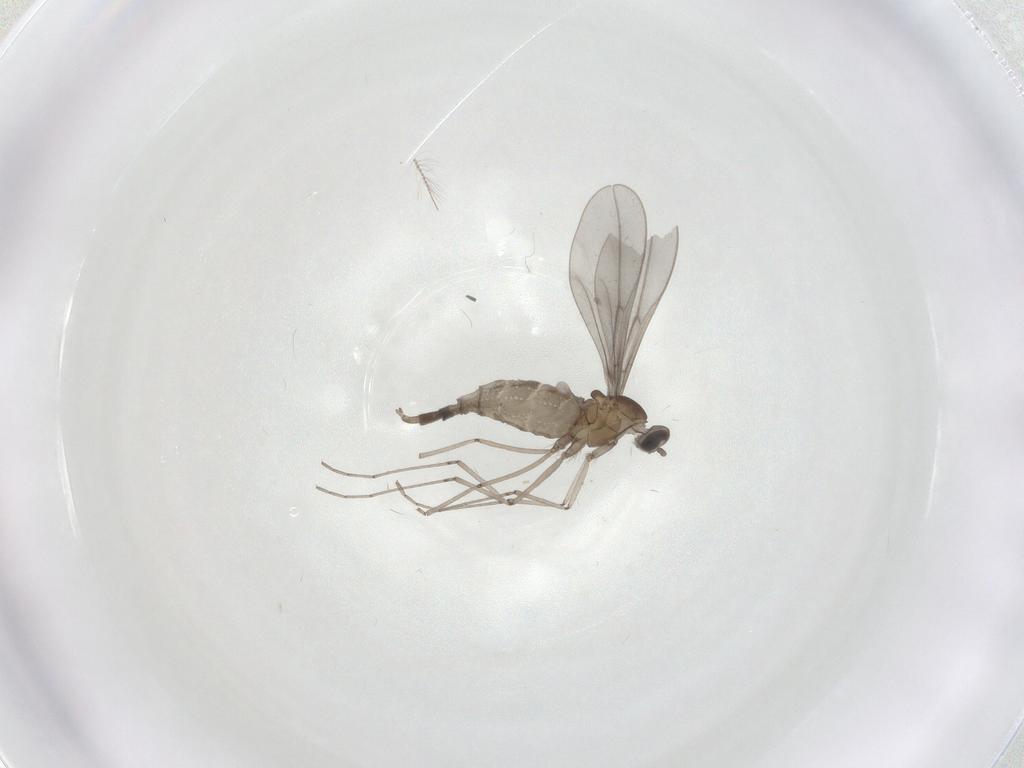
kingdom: Animalia
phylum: Arthropoda
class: Insecta
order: Diptera
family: Cecidomyiidae
